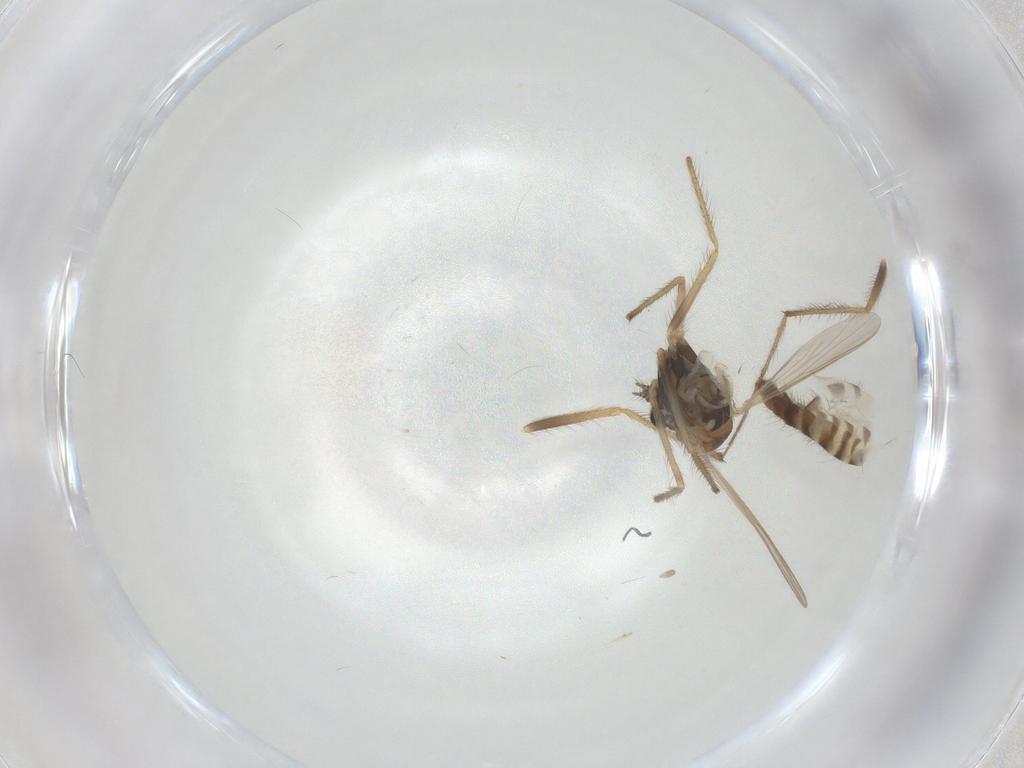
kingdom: Animalia
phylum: Arthropoda
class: Insecta
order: Diptera
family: Chironomidae
